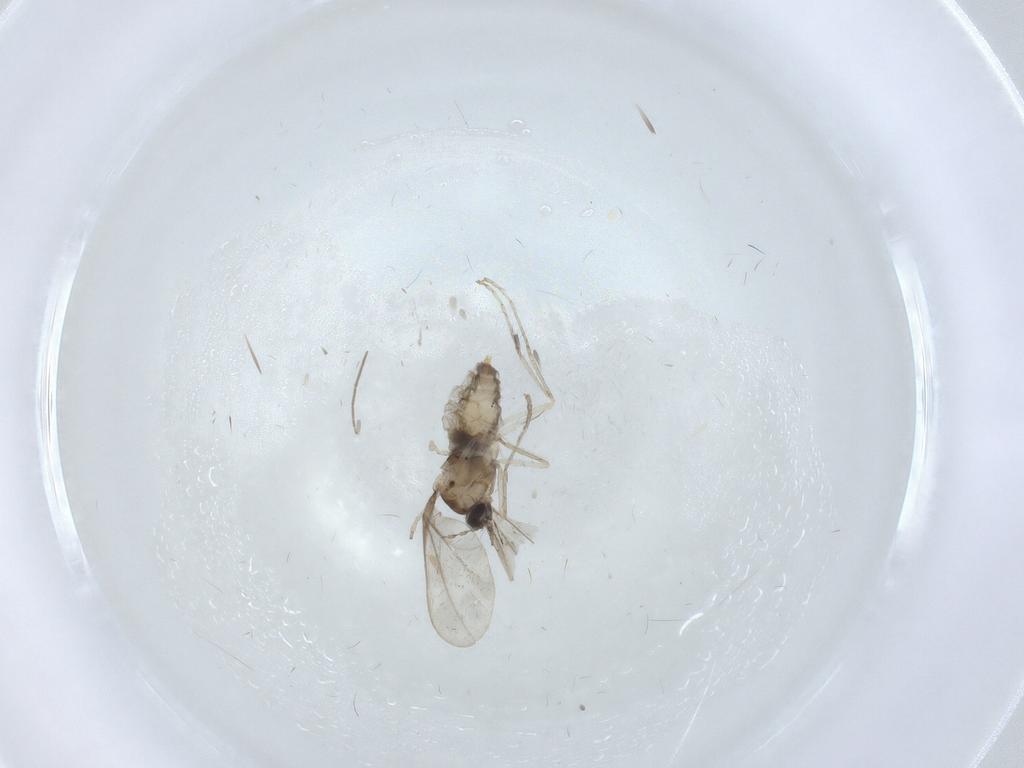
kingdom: Animalia
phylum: Arthropoda
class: Insecta
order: Diptera
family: Cecidomyiidae
